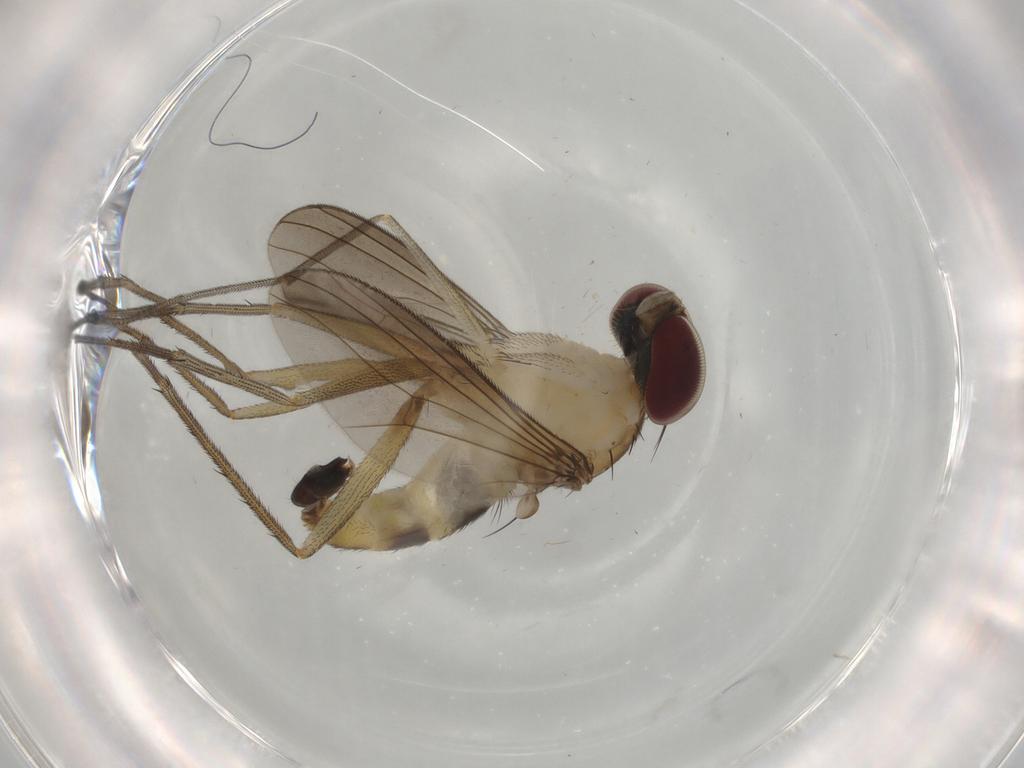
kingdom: Animalia
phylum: Arthropoda
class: Insecta
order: Diptera
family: Dolichopodidae
